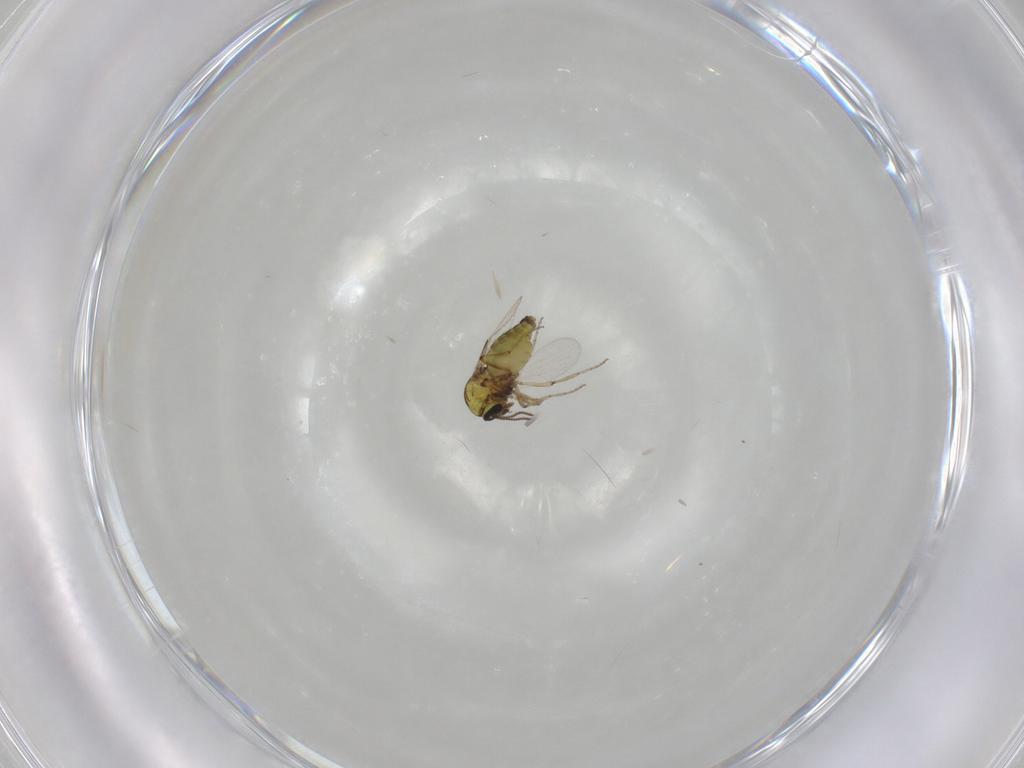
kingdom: Animalia
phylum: Arthropoda
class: Insecta
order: Diptera
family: Ceratopogonidae
